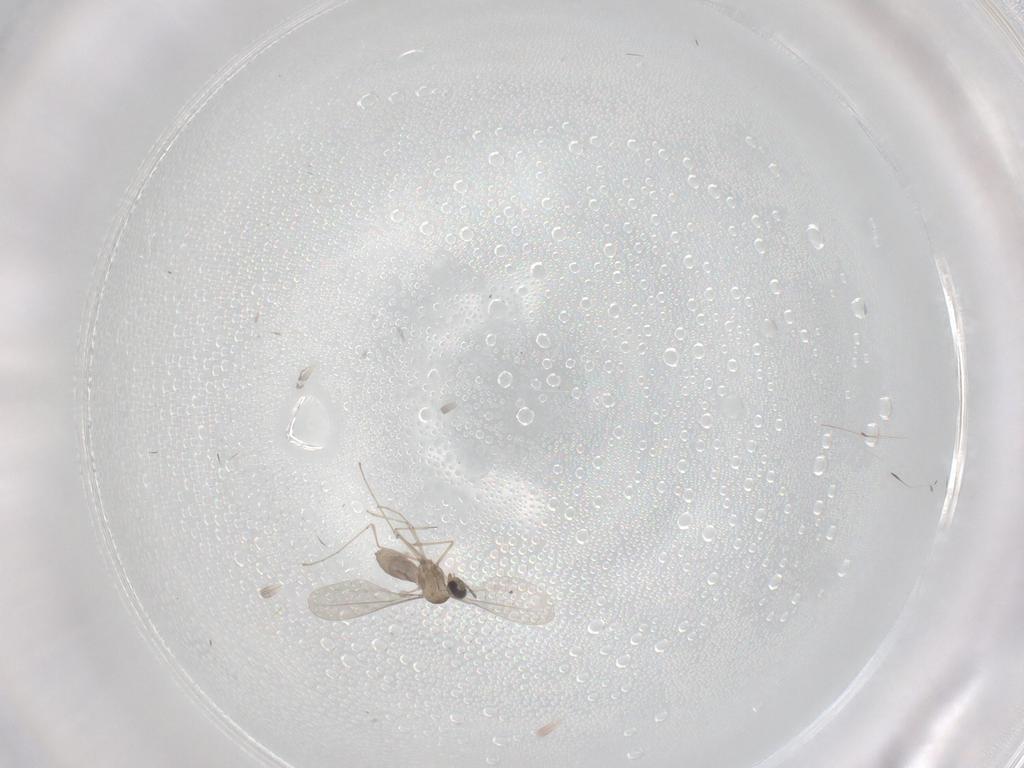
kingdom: Animalia
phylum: Arthropoda
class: Insecta
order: Diptera
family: Cecidomyiidae
